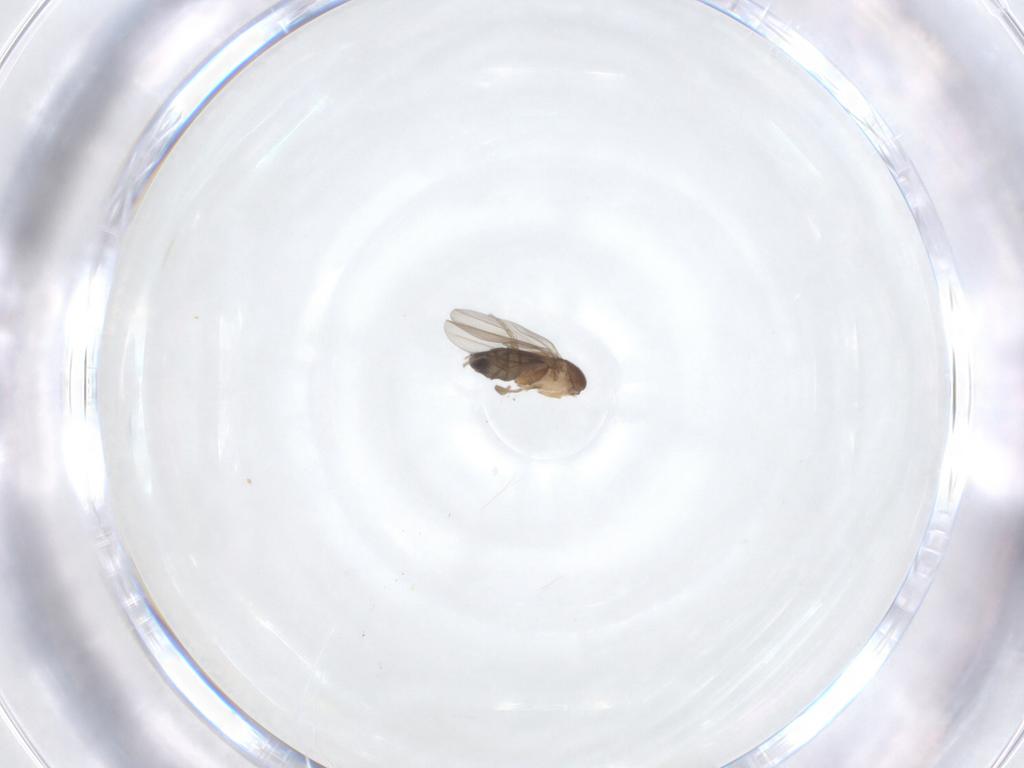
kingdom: Animalia
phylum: Arthropoda
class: Insecta
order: Diptera
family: Phoridae
